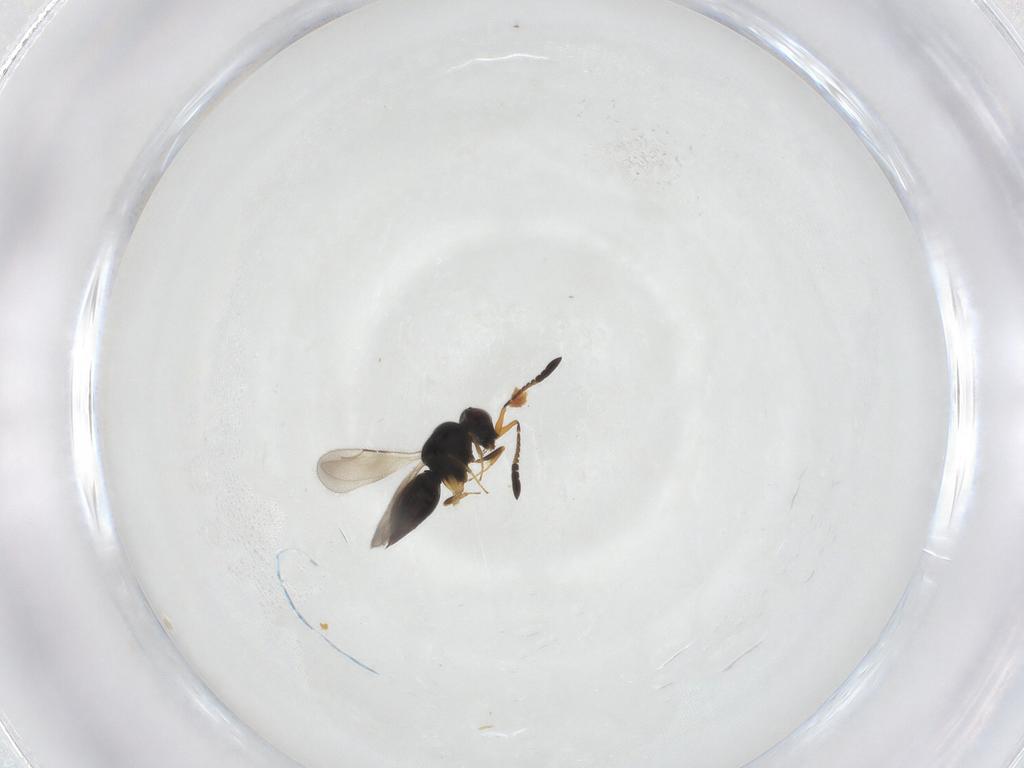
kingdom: Animalia
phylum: Arthropoda
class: Insecta
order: Hymenoptera
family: Ceraphronidae
